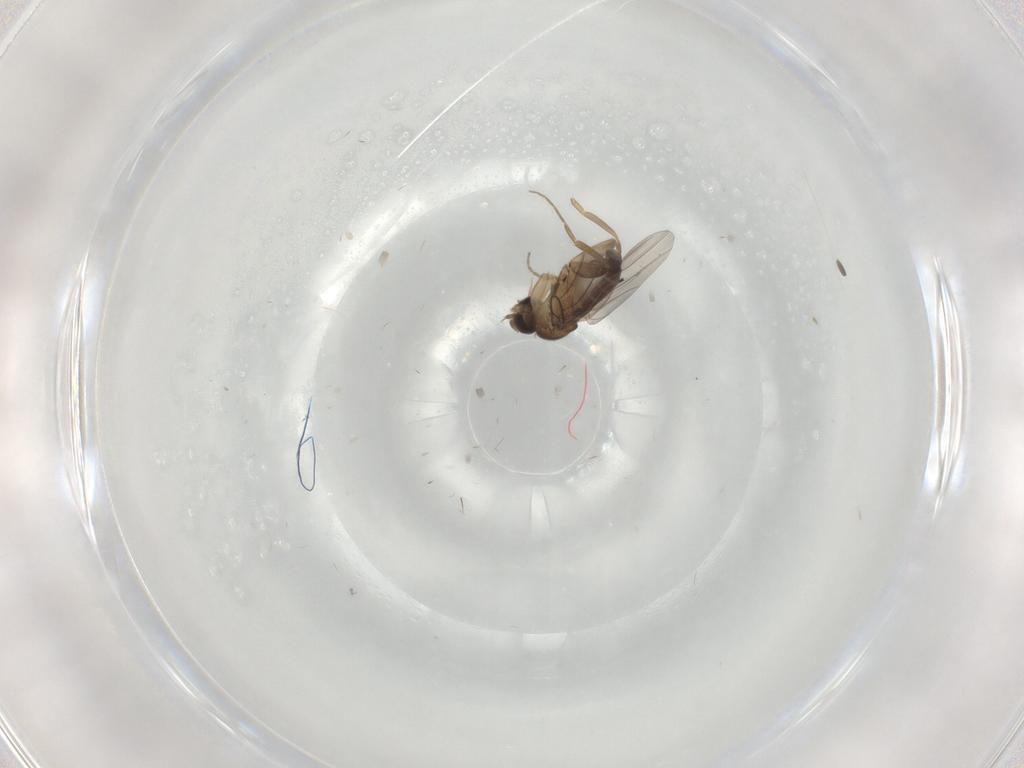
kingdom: Animalia
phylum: Arthropoda
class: Insecta
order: Diptera
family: Phoridae
